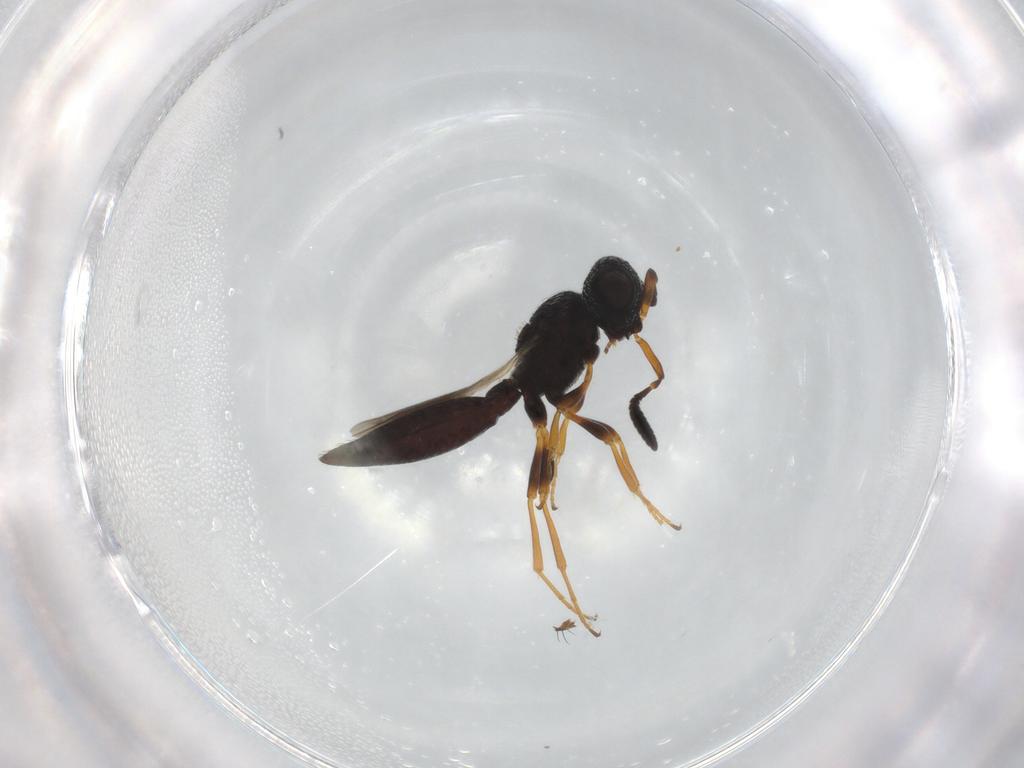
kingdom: Animalia
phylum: Arthropoda
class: Insecta
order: Hymenoptera
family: Scelionidae
